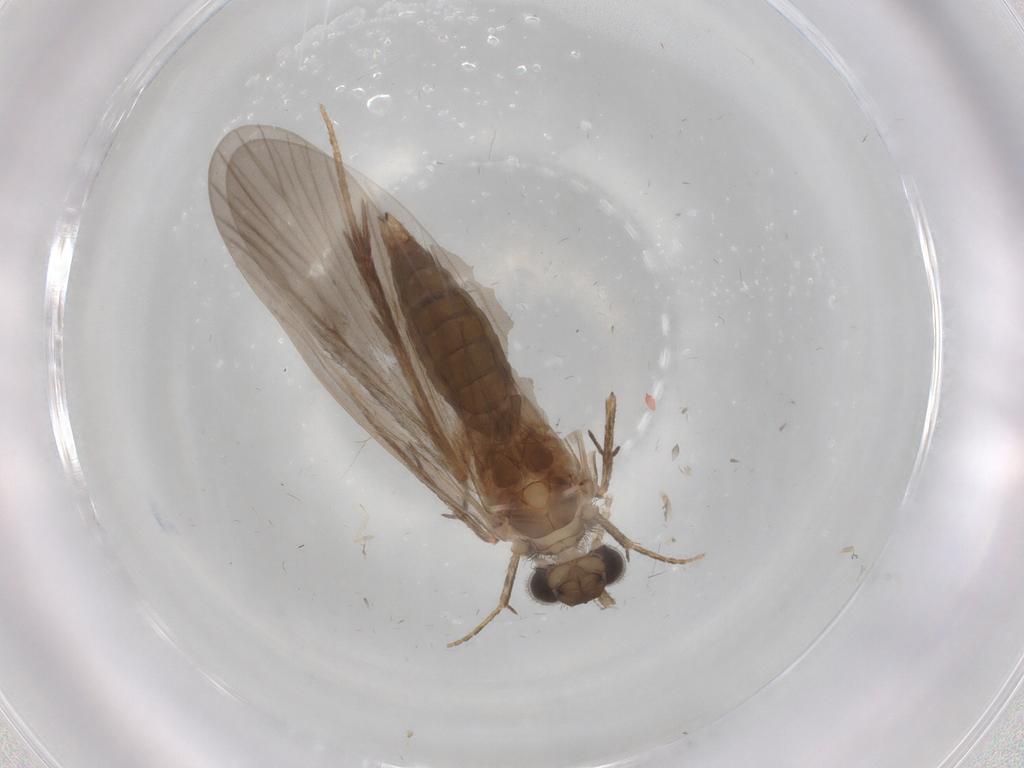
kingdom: Animalia
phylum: Arthropoda
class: Insecta
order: Trichoptera
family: Philopotamidae
